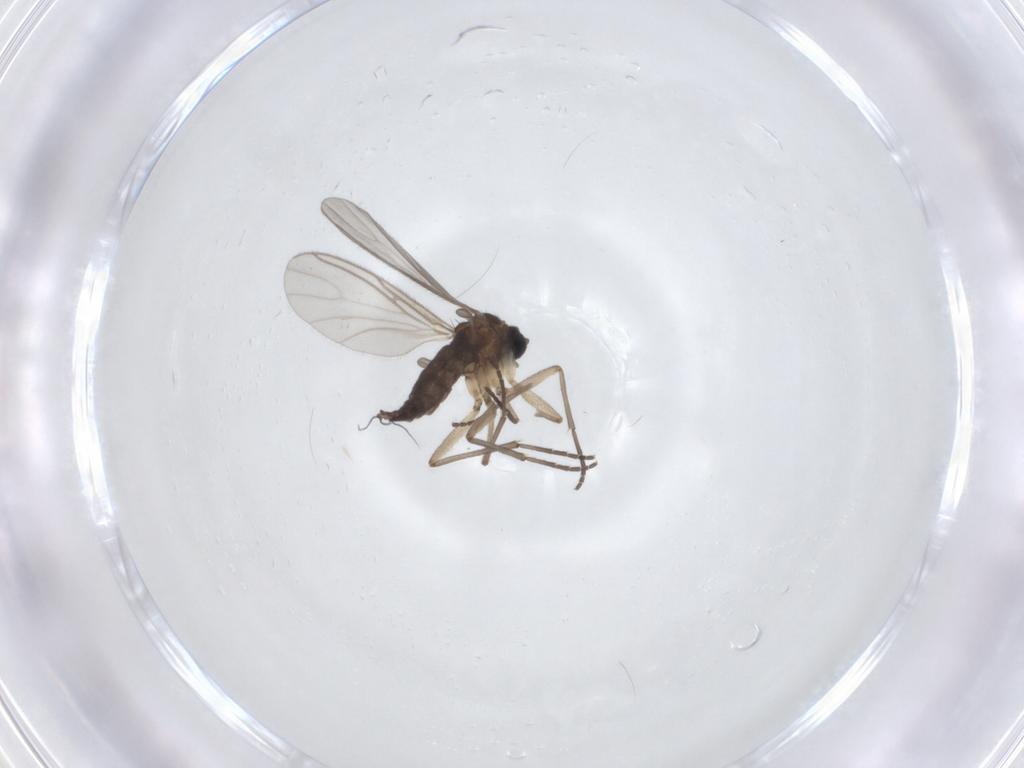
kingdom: Animalia
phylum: Arthropoda
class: Insecta
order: Diptera
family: Sciaridae
